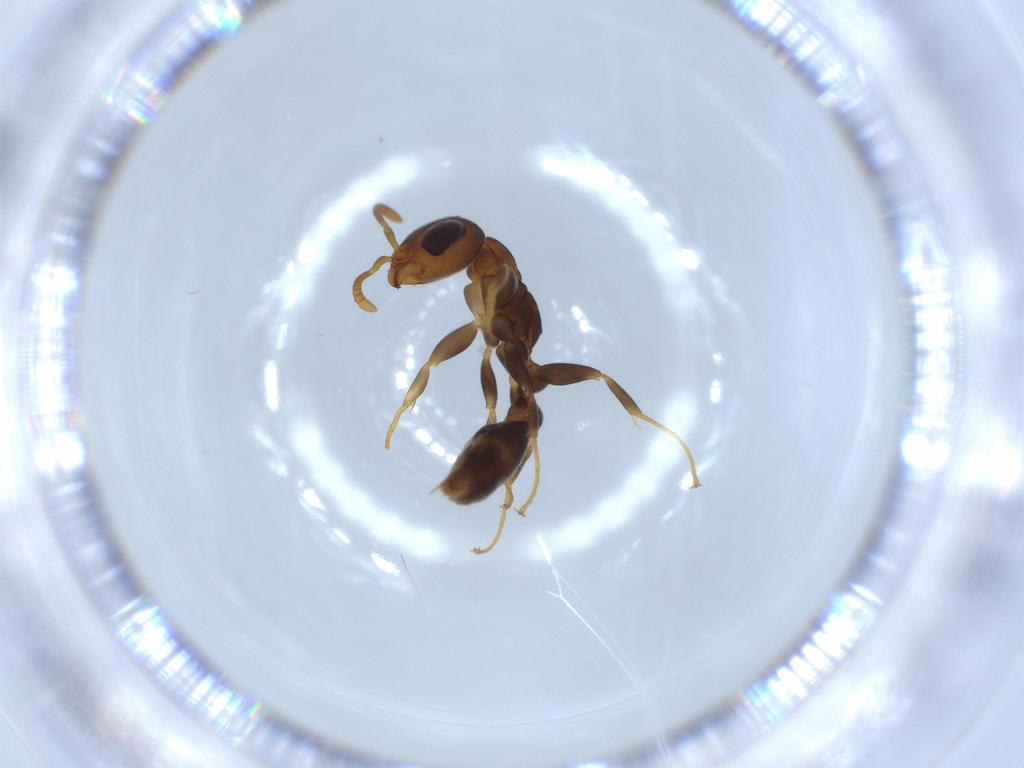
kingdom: Animalia
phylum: Arthropoda
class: Insecta
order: Hymenoptera
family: Formicidae
